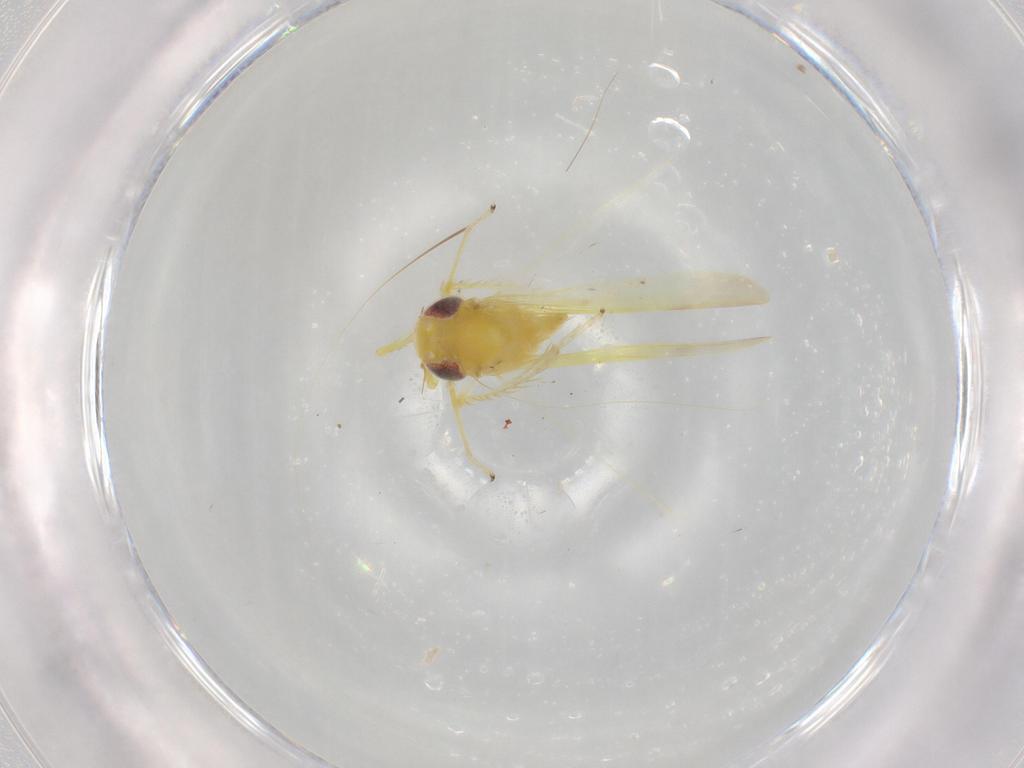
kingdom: Animalia
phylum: Arthropoda
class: Insecta
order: Hemiptera
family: Cicadellidae
